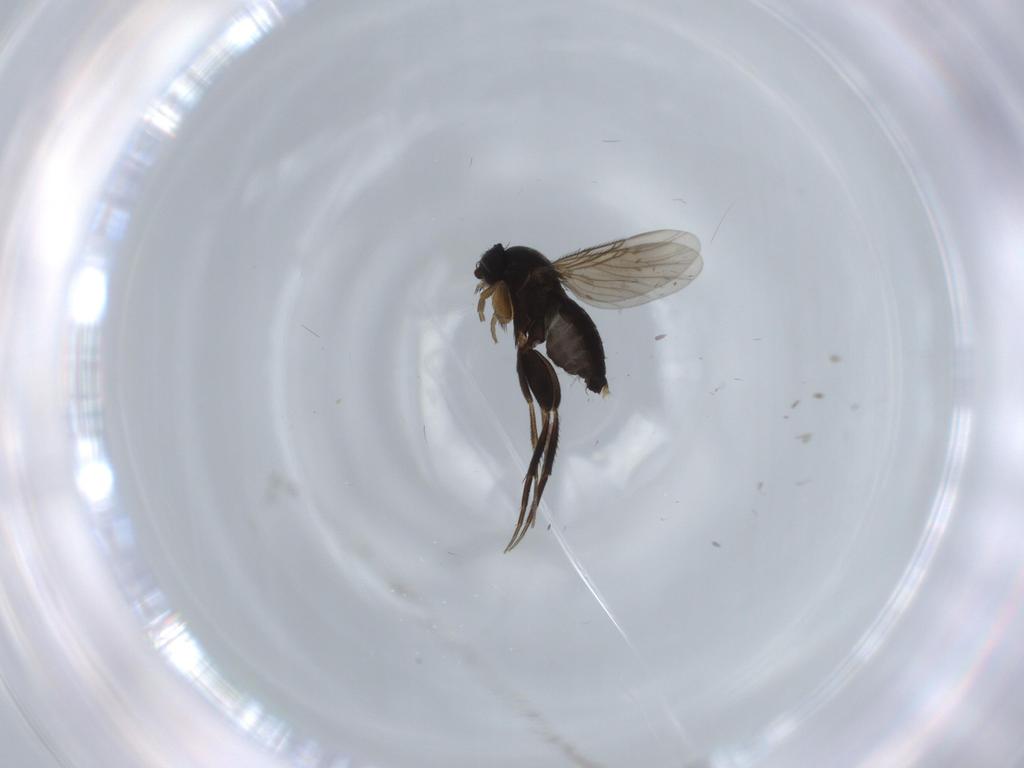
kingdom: Animalia
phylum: Arthropoda
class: Insecta
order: Diptera
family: Phoridae
